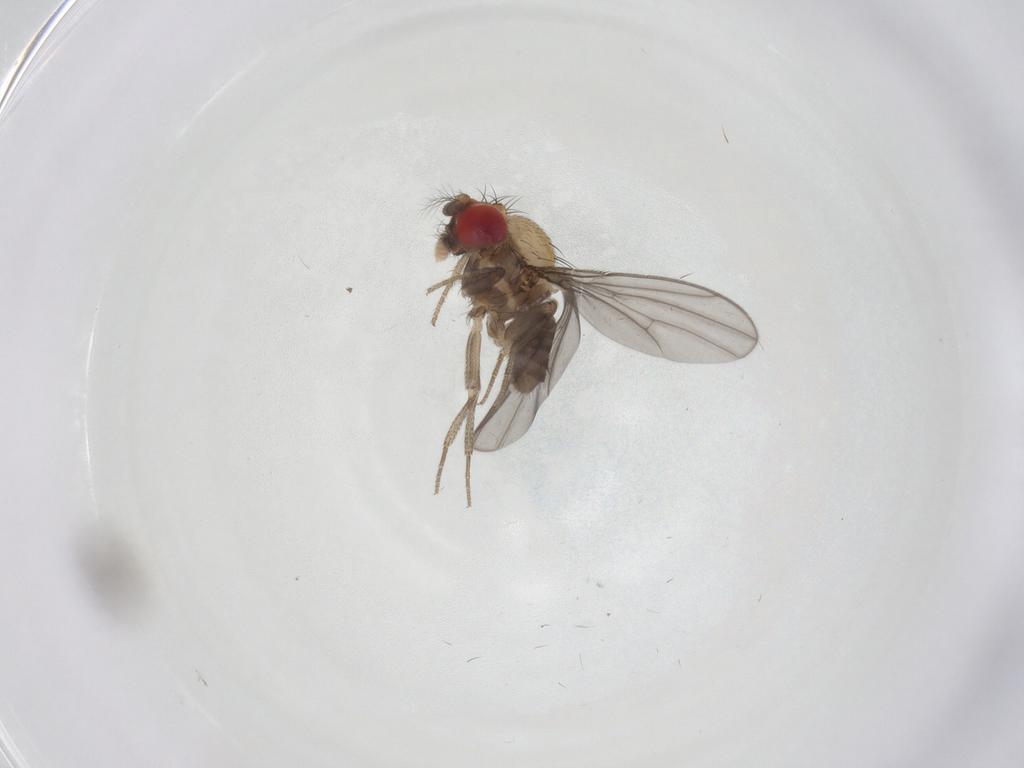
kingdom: Animalia
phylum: Arthropoda
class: Insecta
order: Diptera
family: Drosophilidae
